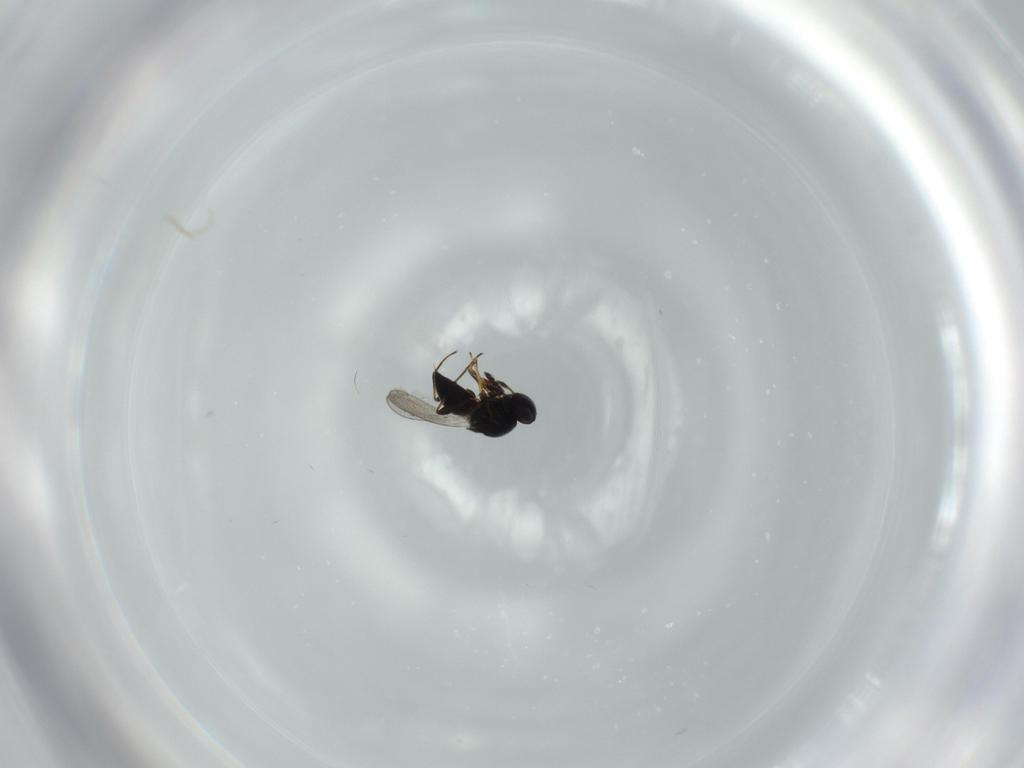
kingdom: Animalia
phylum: Arthropoda
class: Insecta
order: Hymenoptera
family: Platygastridae
